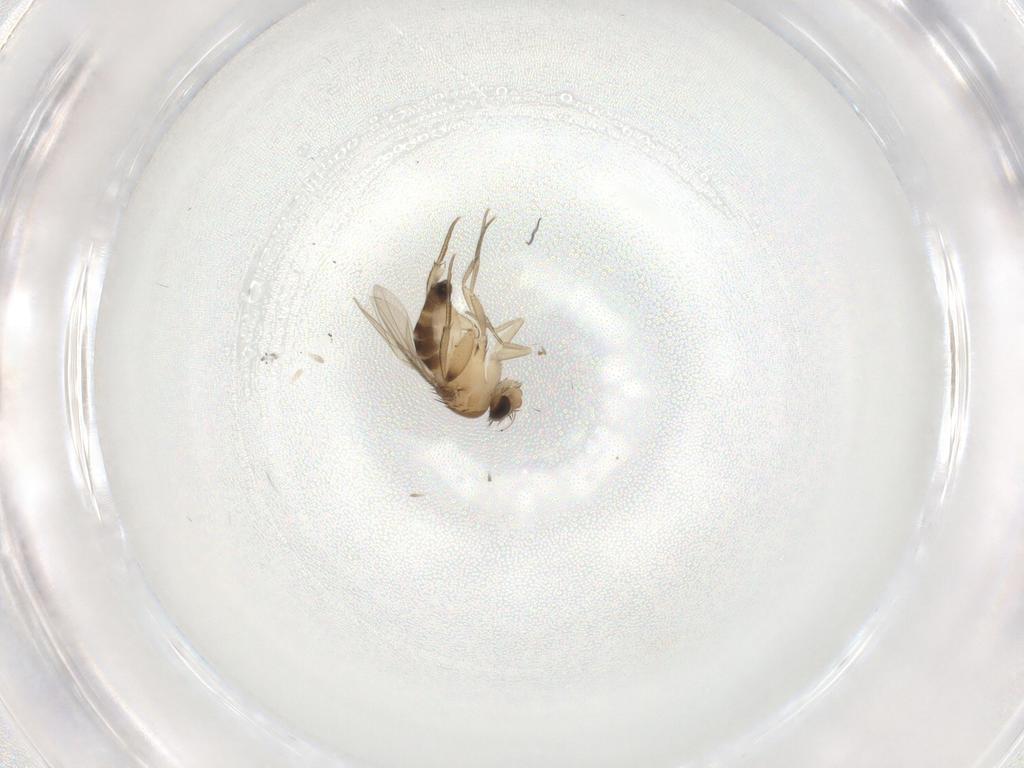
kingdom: Animalia
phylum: Arthropoda
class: Insecta
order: Diptera
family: Phoridae
